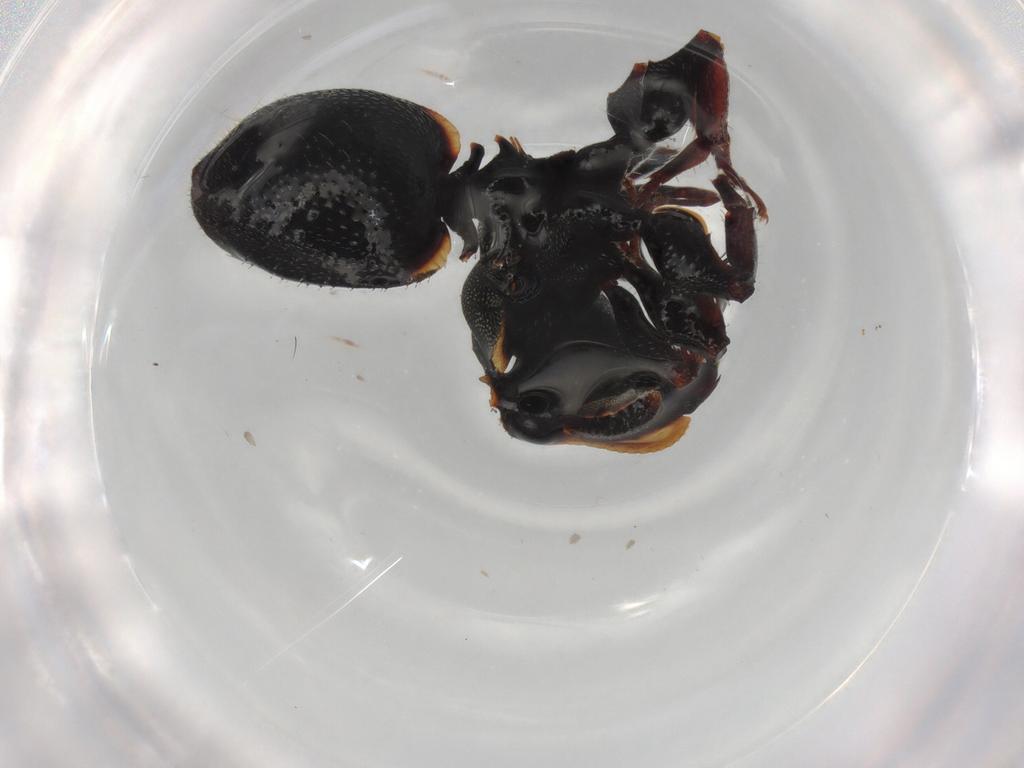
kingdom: Animalia
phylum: Arthropoda
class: Insecta
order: Hymenoptera
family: Formicidae
